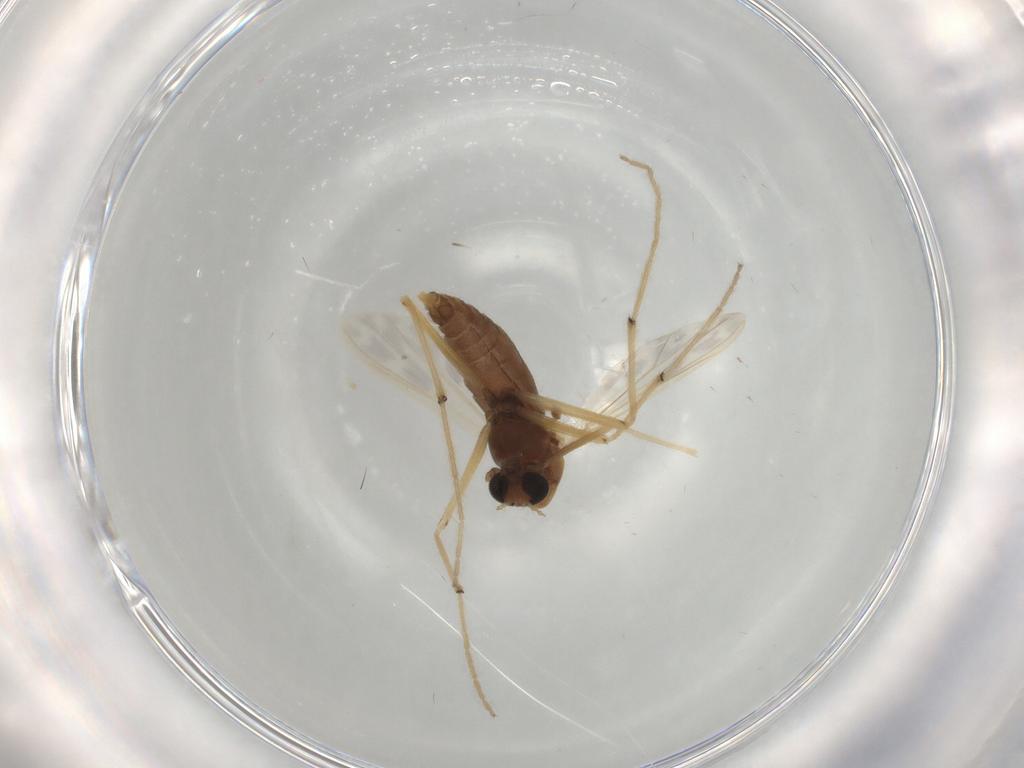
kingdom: Animalia
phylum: Arthropoda
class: Insecta
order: Diptera
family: Chironomidae
